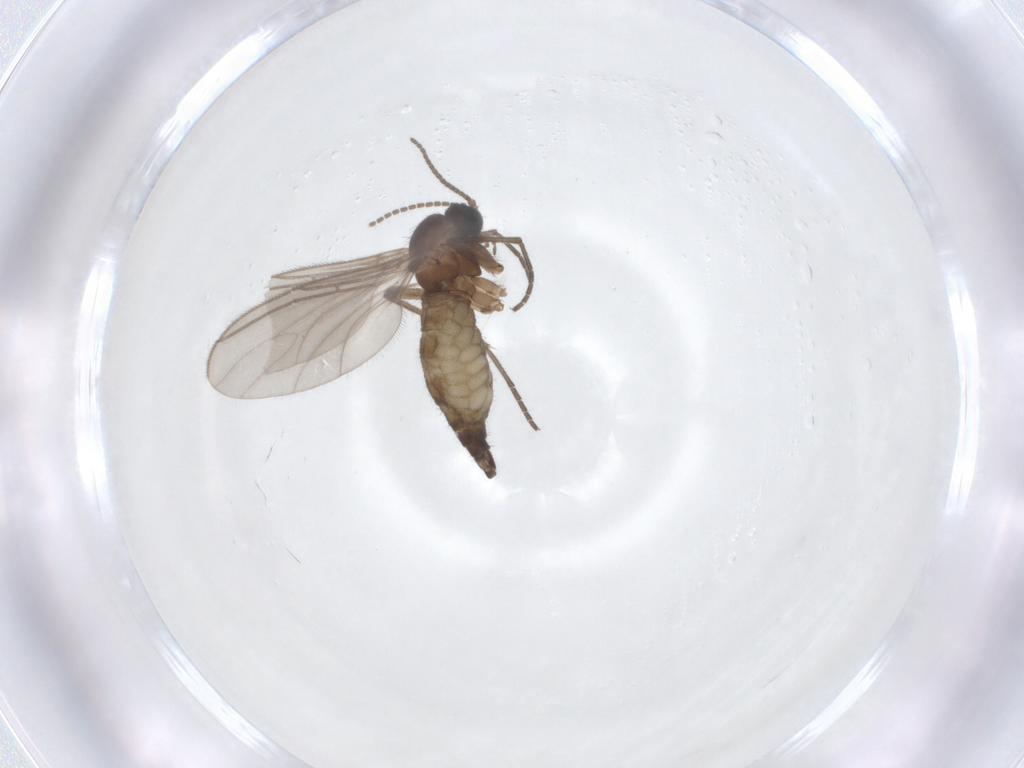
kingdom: Animalia
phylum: Arthropoda
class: Insecta
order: Diptera
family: Sciaridae
